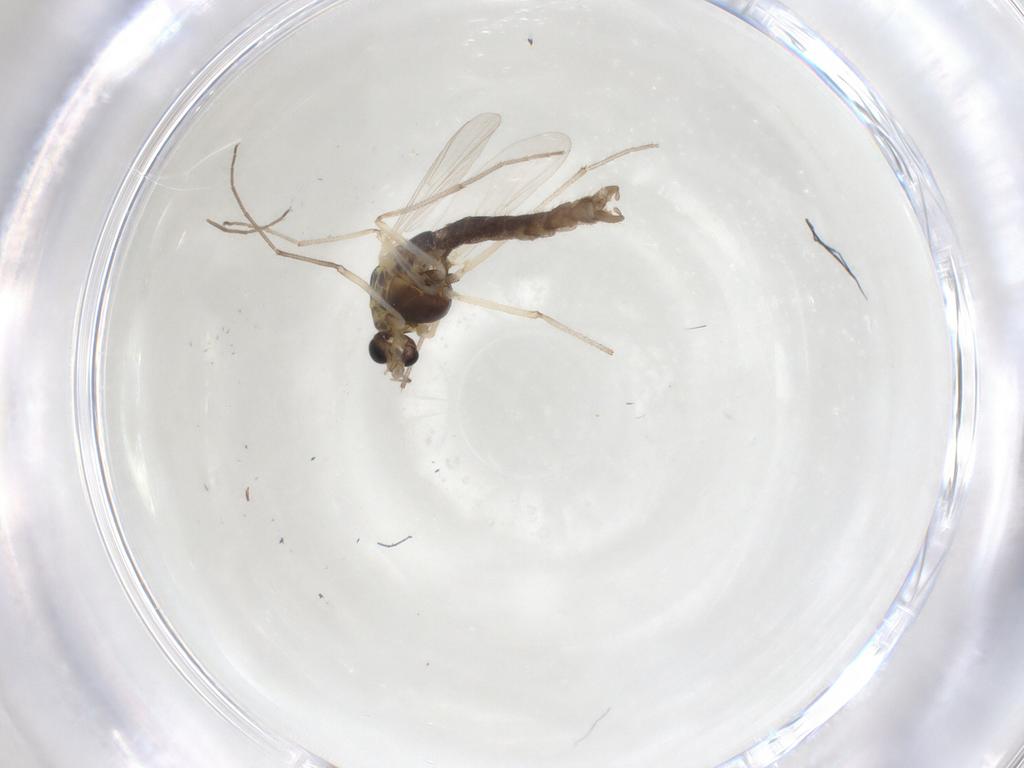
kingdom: Animalia
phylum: Arthropoda
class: Insecta
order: Diptera
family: Chironomidae
